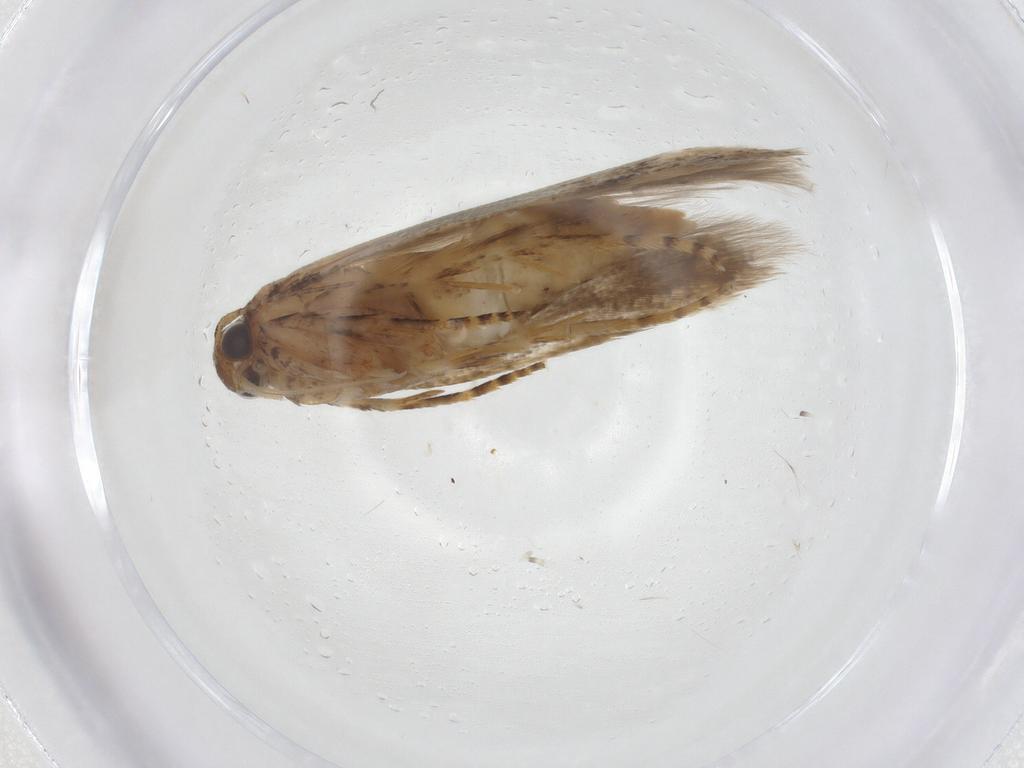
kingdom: Animalia
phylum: Arthropoda
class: Insecta
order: Lepidoptera
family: Gelechiidae
